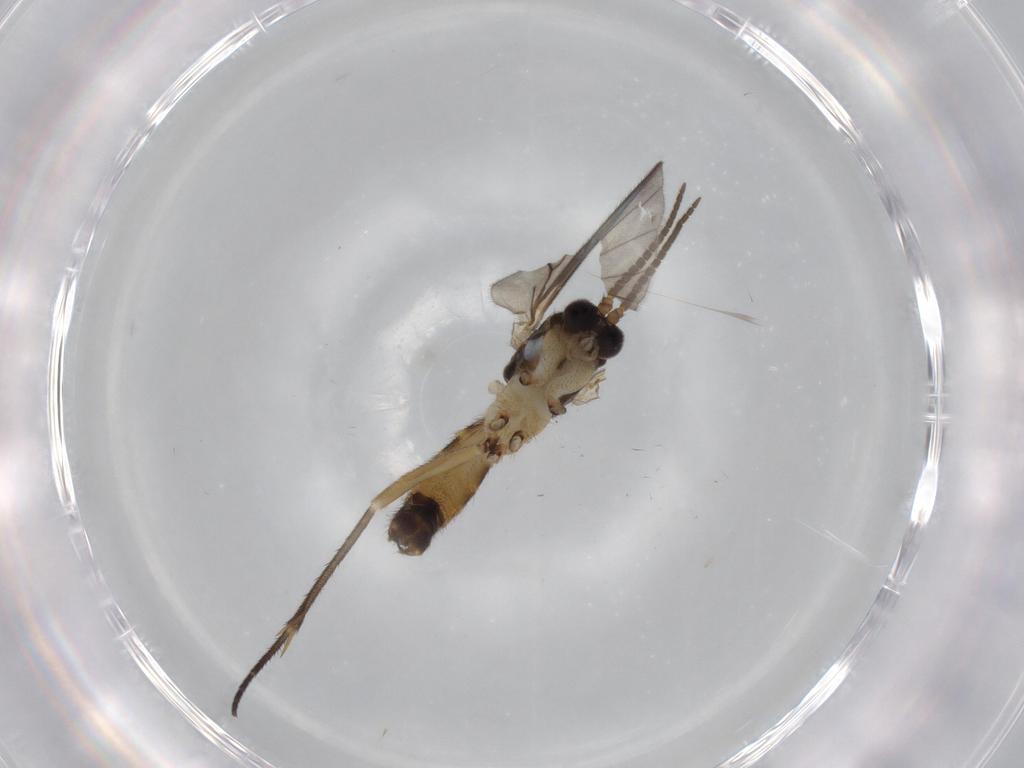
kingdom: Animalia
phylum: Arthropoda
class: Insecta
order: Diptera
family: Mycetophilidae
